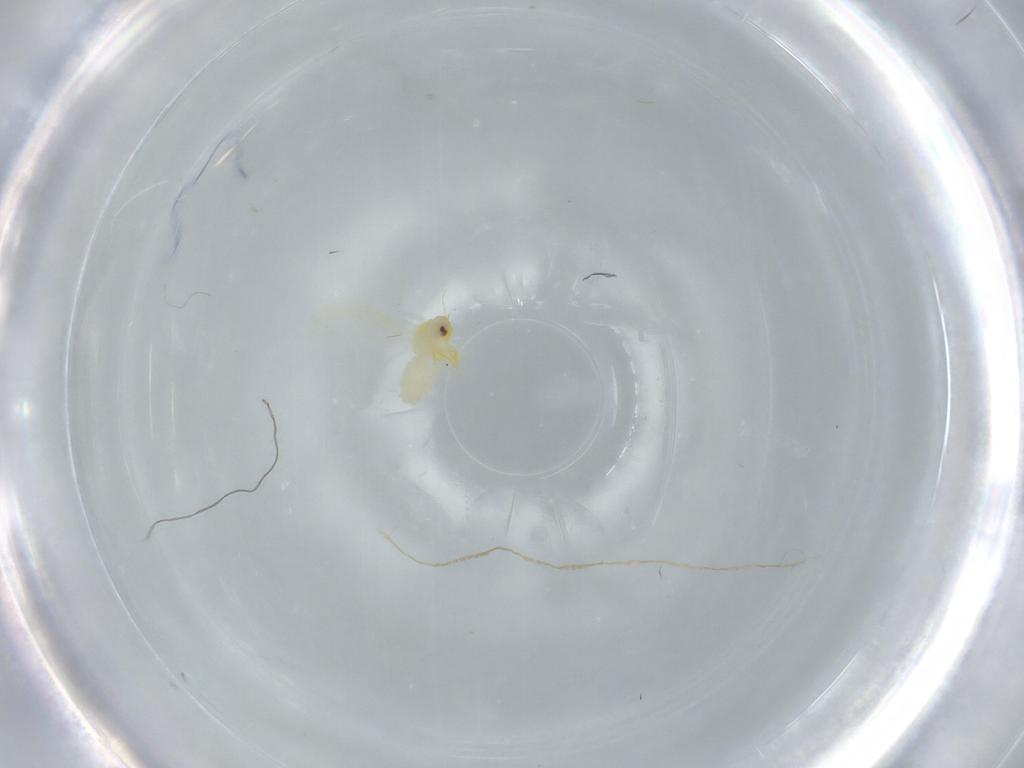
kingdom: Animalia
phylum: Arthropoda
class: Insecta
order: Hemiptera
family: Aleyrodidae
